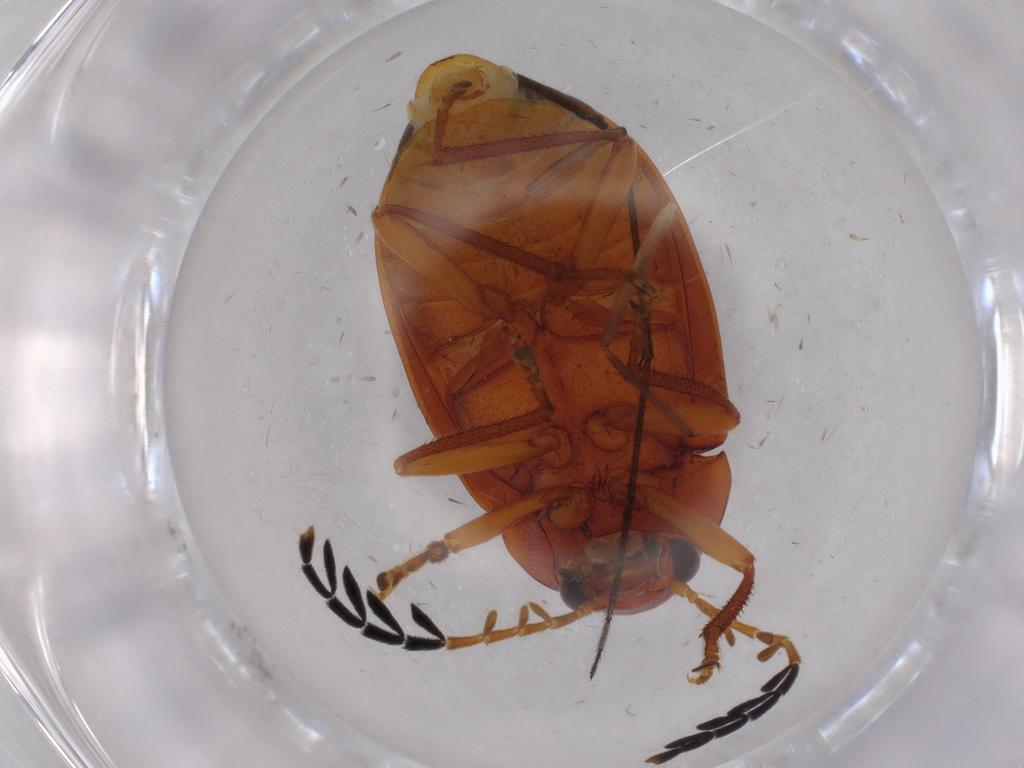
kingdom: Animalia
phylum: Arthropoda
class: Insecta
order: Coleoptera
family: Ptilodactylidae
